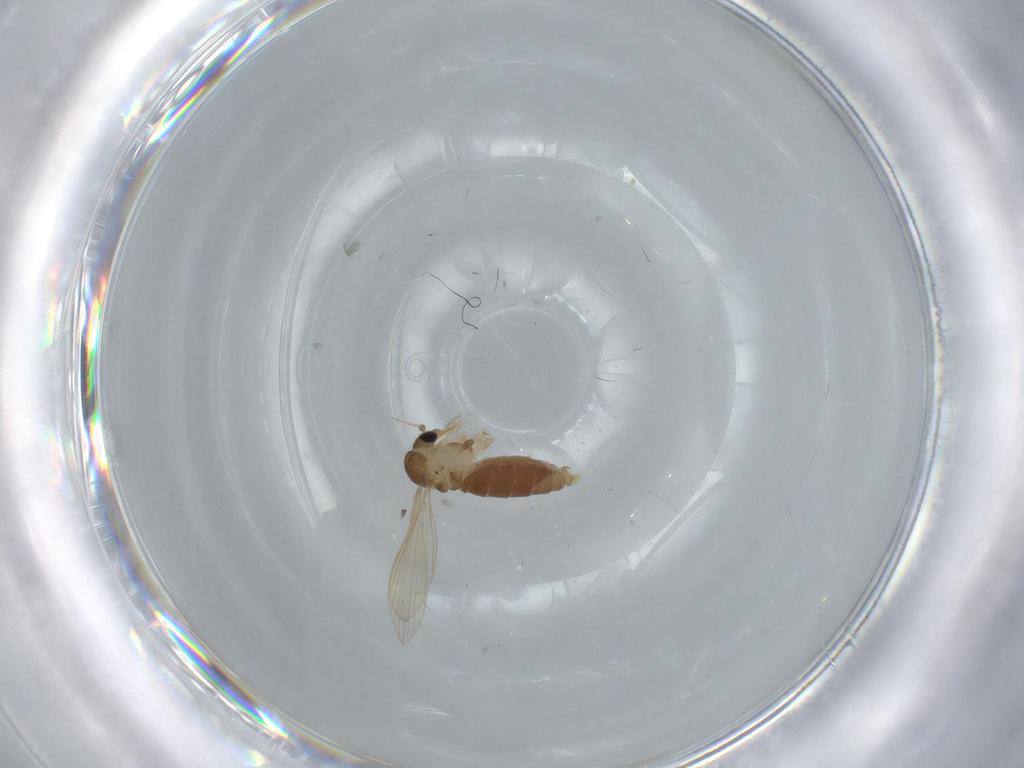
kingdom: Animalia
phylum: Arthropoda
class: Insecta
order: Diptera
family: Psychodidae
